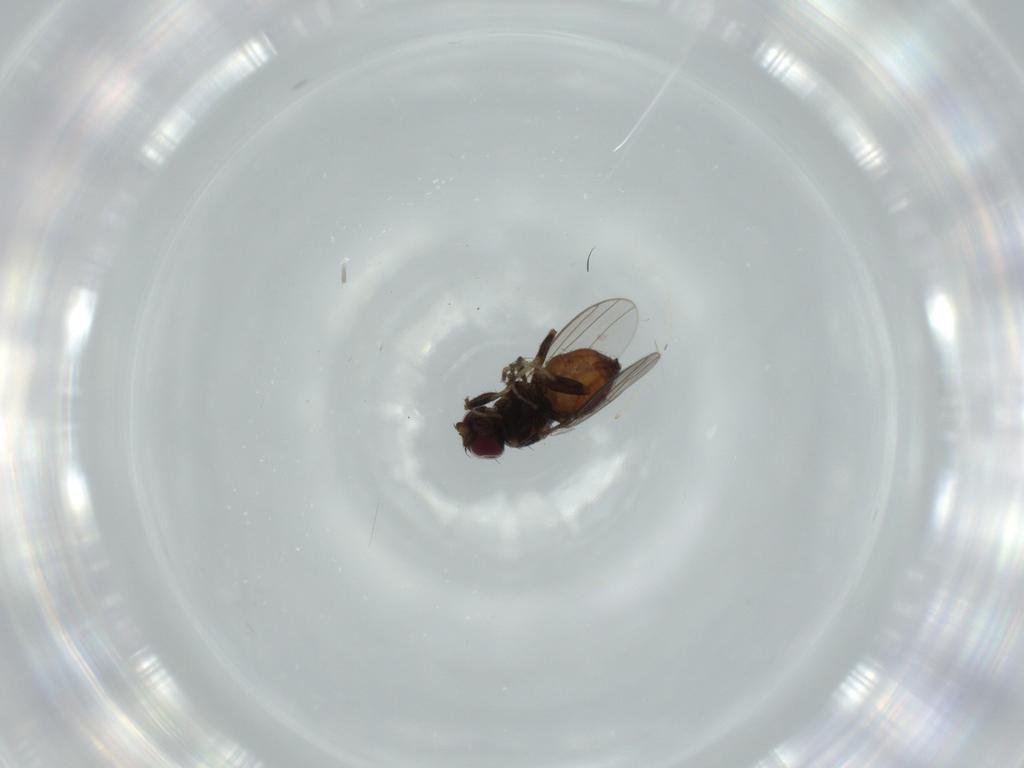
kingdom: Animalia
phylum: Arthropoda
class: Insecta
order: Diptera
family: Chloropidae
